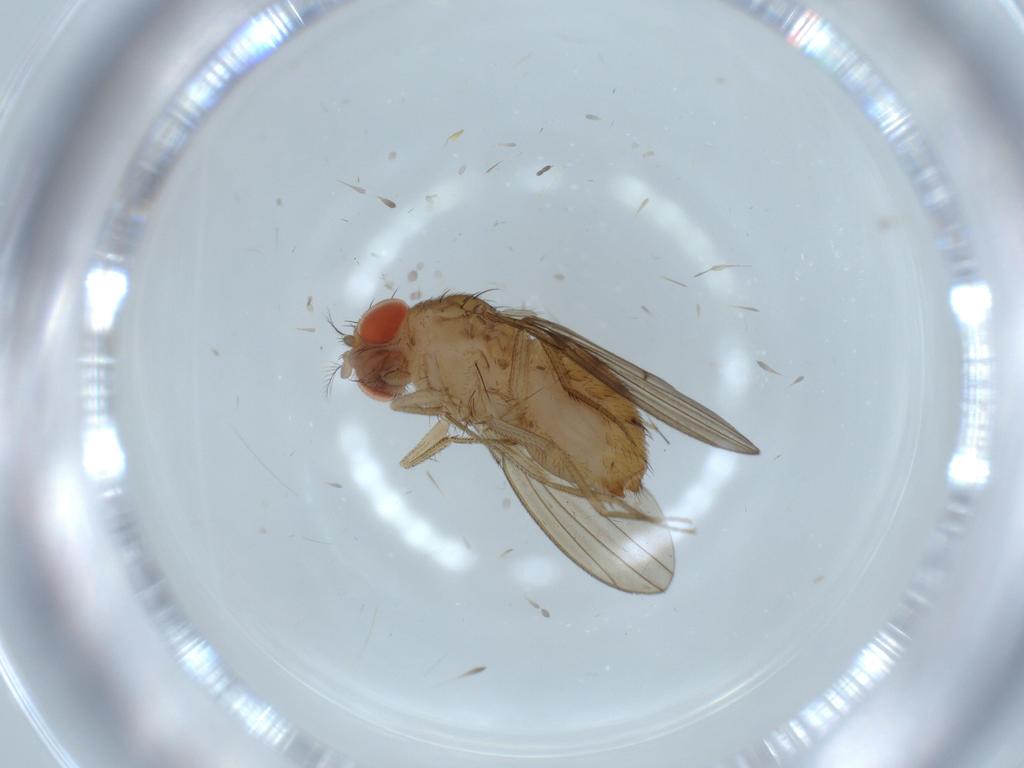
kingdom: Animalia
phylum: Arthropoda
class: Insecta
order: Diptera
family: Drosophilidae
